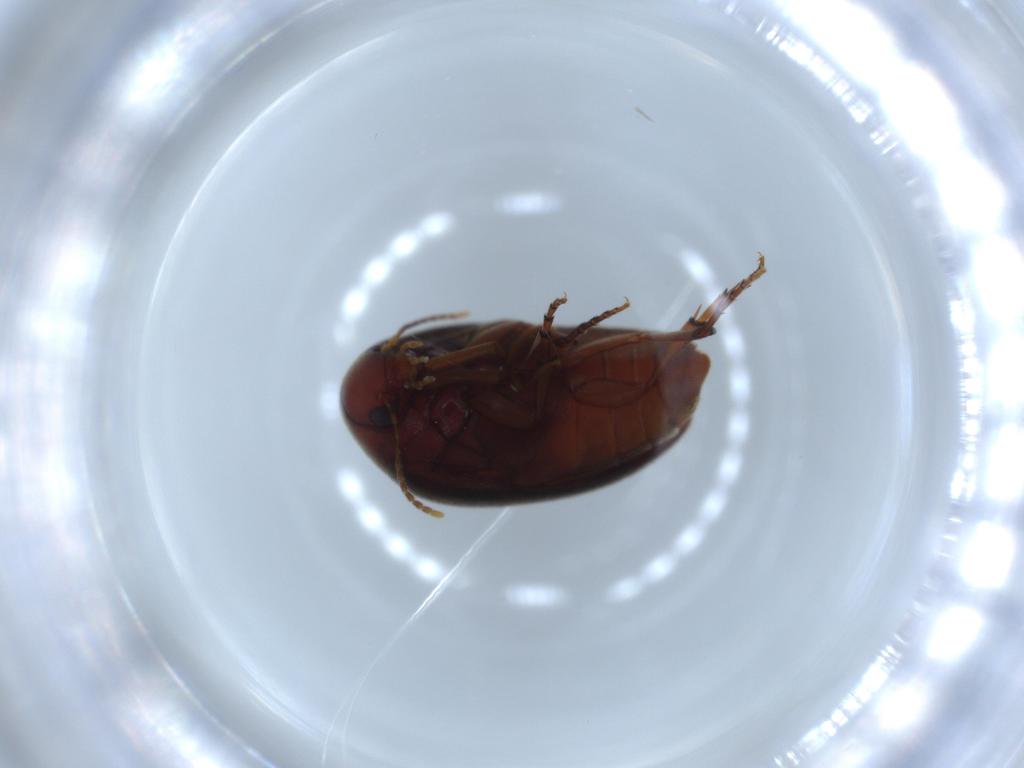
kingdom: Animalia
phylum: Arthropoda
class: Insecta
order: Coleoptera
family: Eucinetidae
